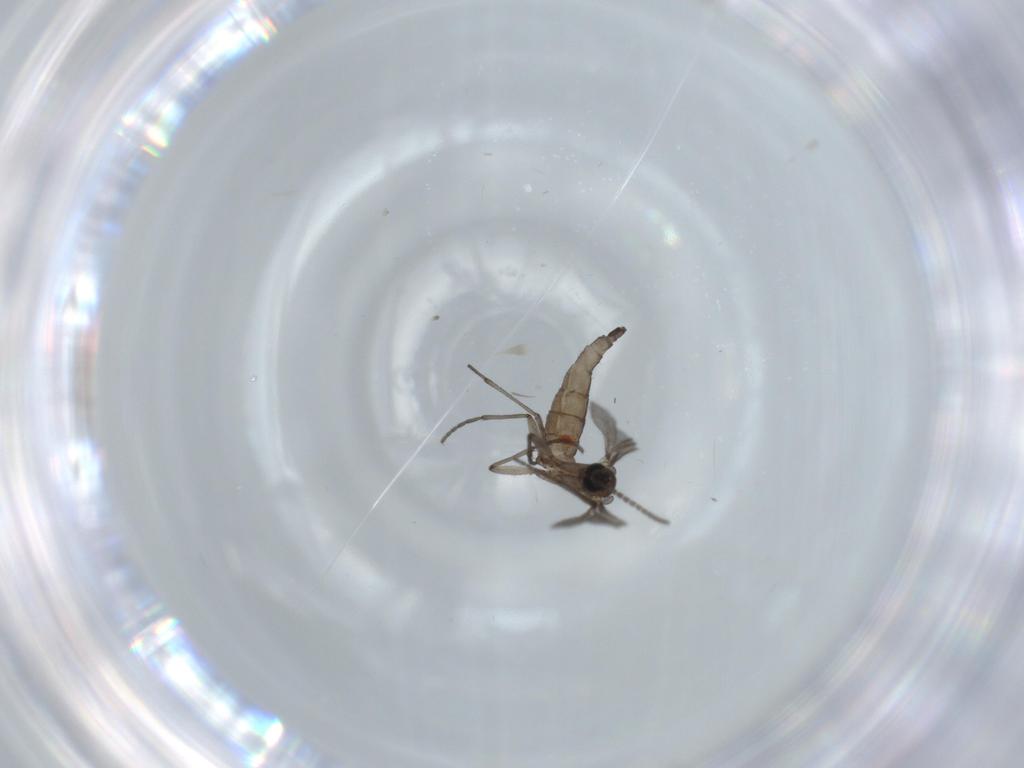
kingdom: Animalia
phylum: Arthropoda
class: Insecta
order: Diptera
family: Sciaridae
